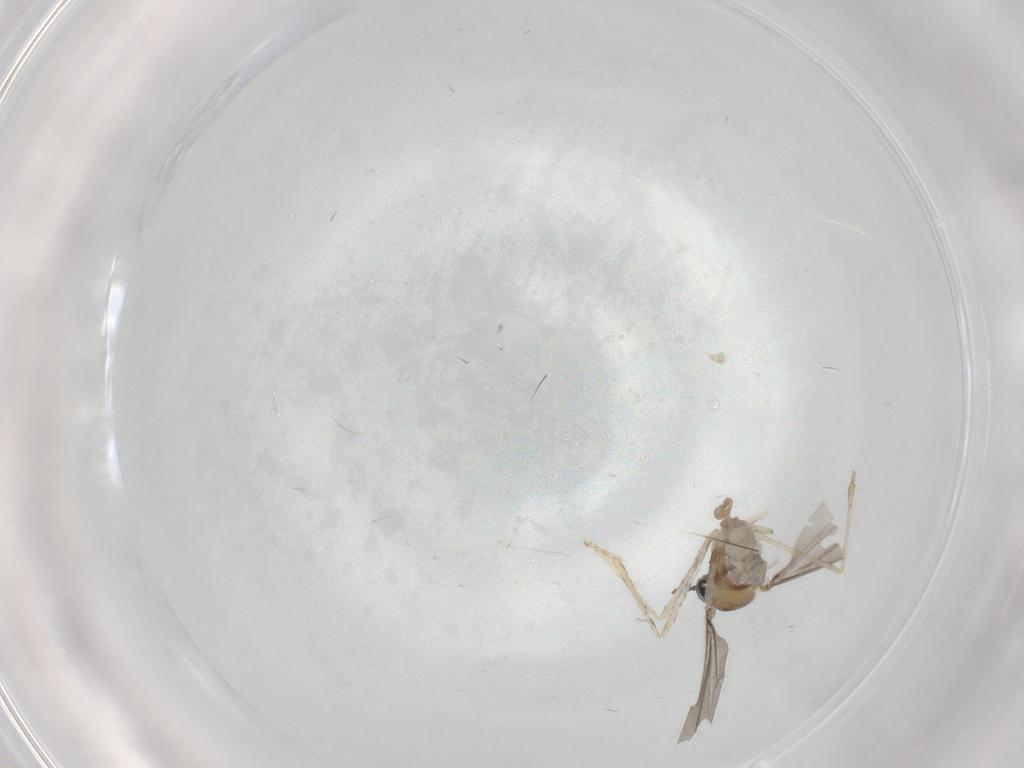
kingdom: Animalia
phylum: Arthropoda
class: Insecta
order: Diptera
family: Cecidomyiidae
